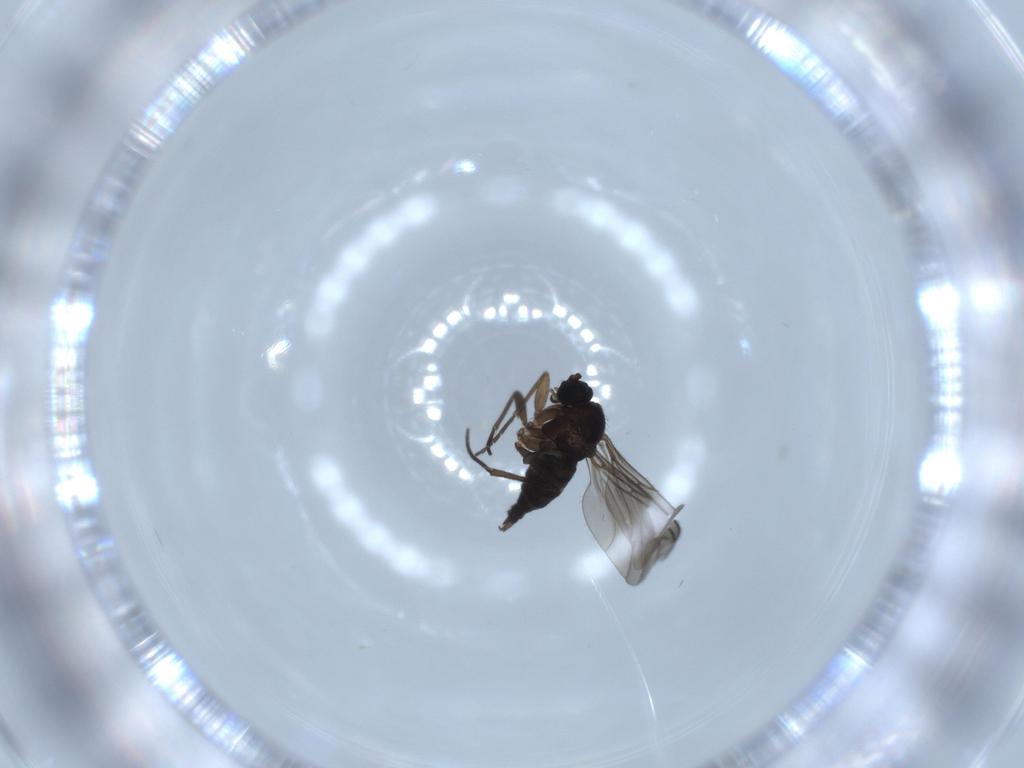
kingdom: Animalia
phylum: Arthropoda
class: Insecta
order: Diptera
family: Sciaridae
